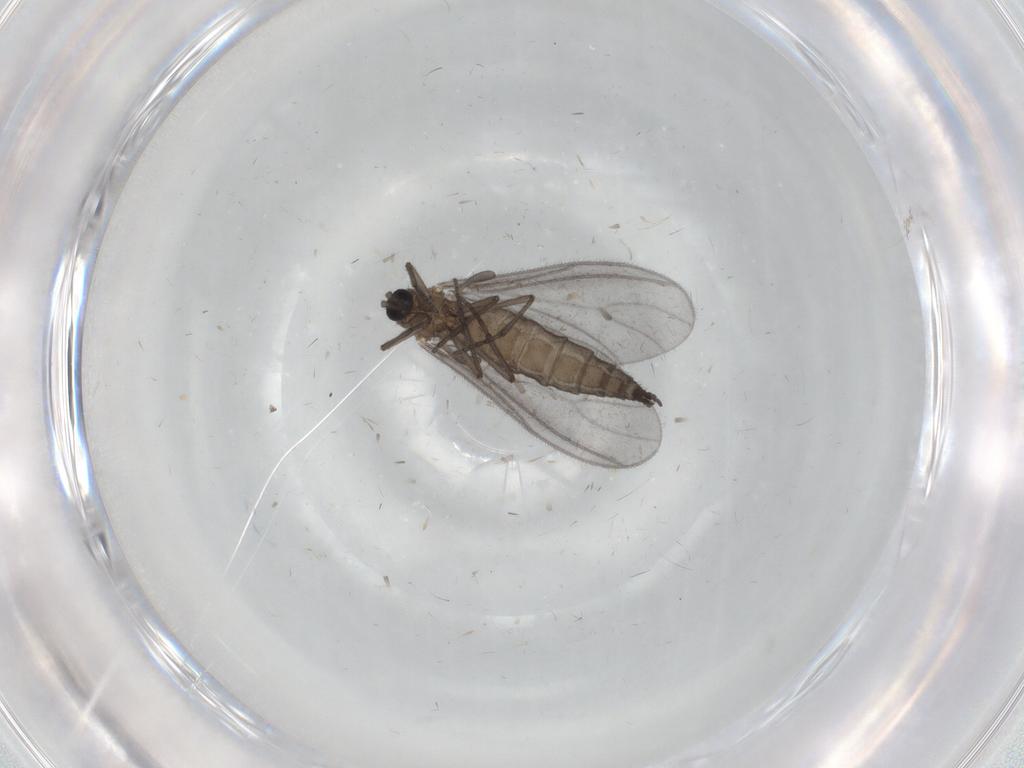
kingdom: Animalia
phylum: Arthropoda
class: Insecta
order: Diptera
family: Sciaridae
